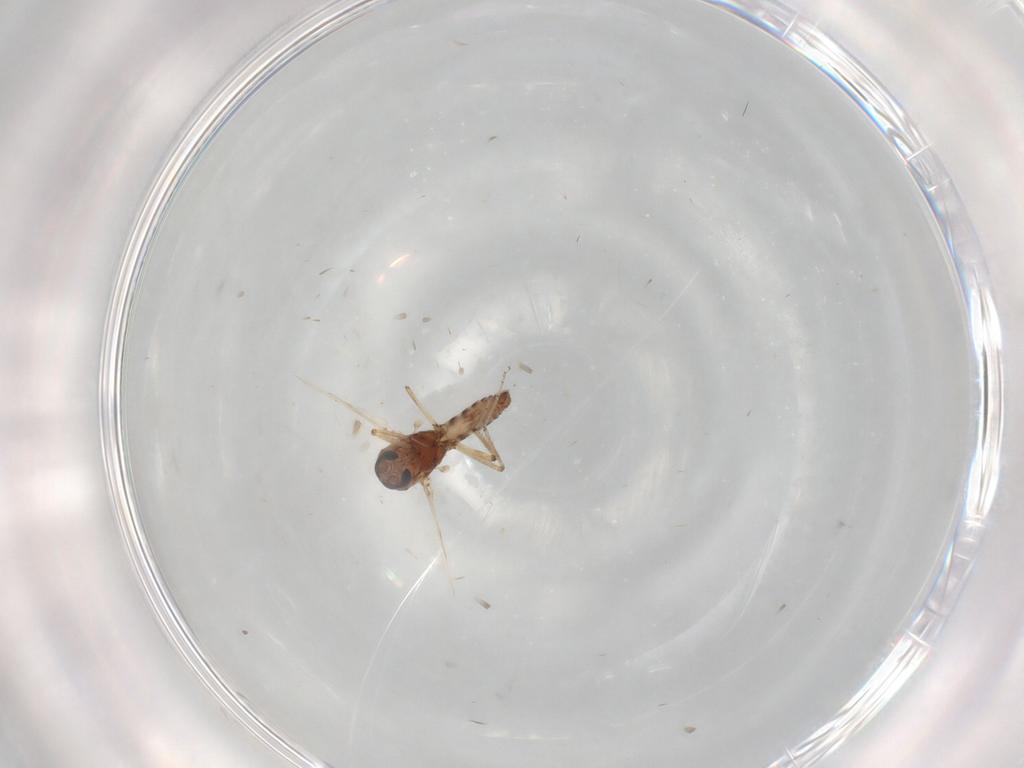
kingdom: Animalia
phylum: Arthropoda
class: Insecta
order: Diptera
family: Phoridae
